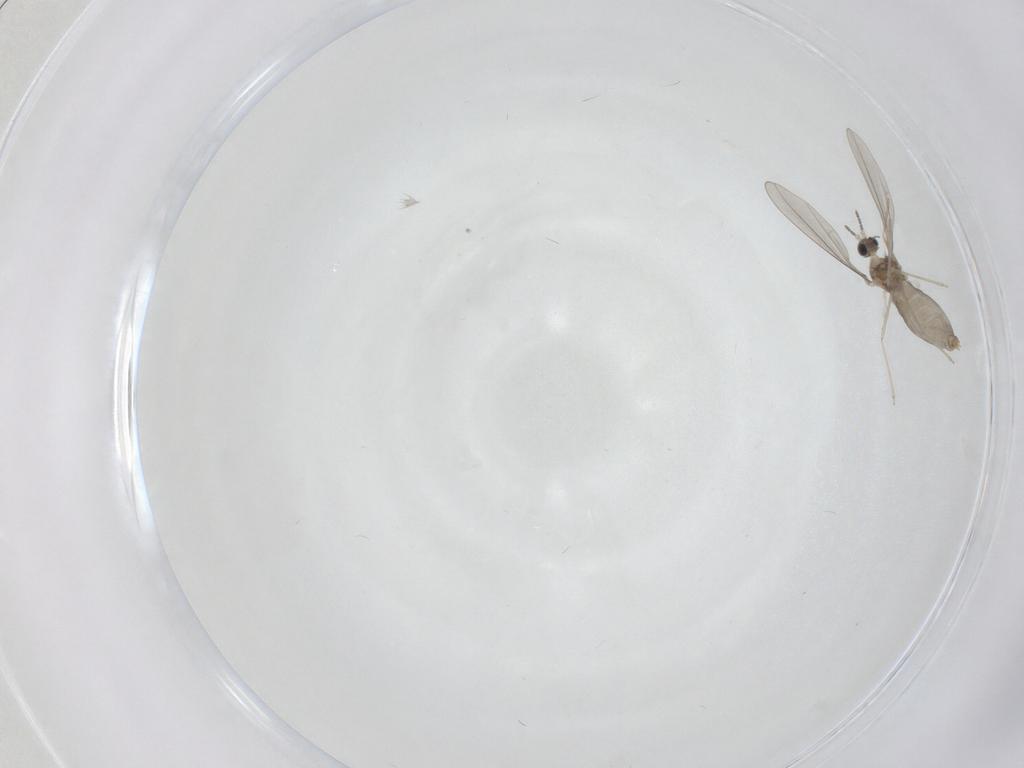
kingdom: Animalia
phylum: Arthropoda
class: Insecta
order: Diptera
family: Cecidomyiidae
